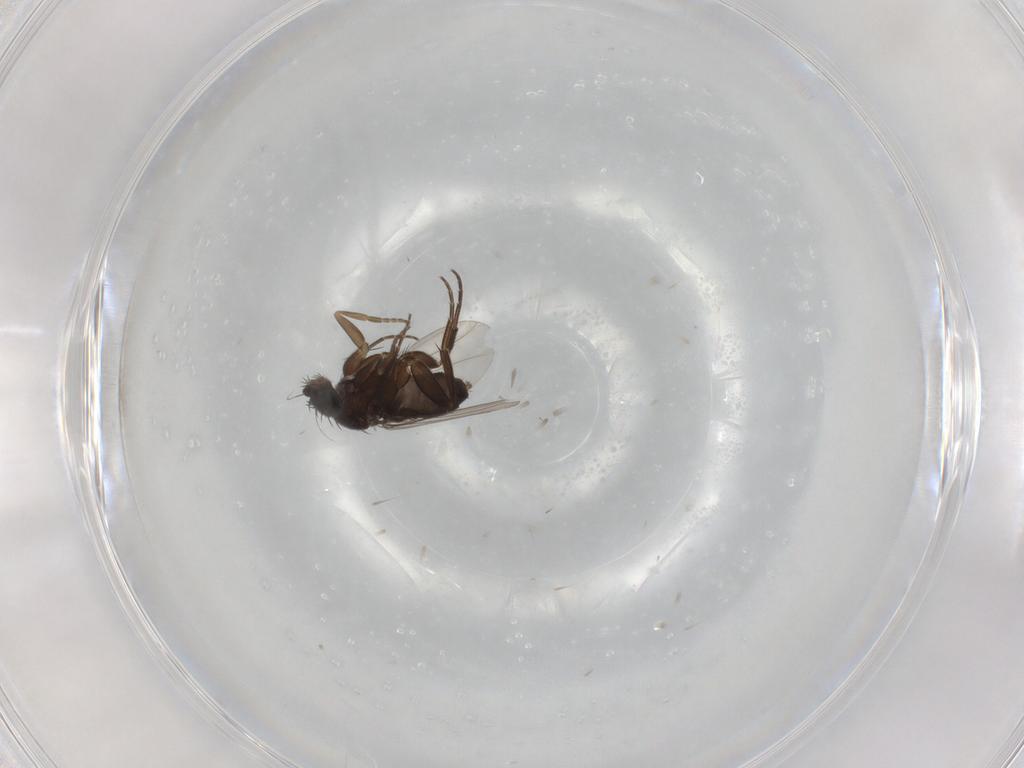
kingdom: Animalia
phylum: Arthropoda
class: Insecta
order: Diptera
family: Phoridae
